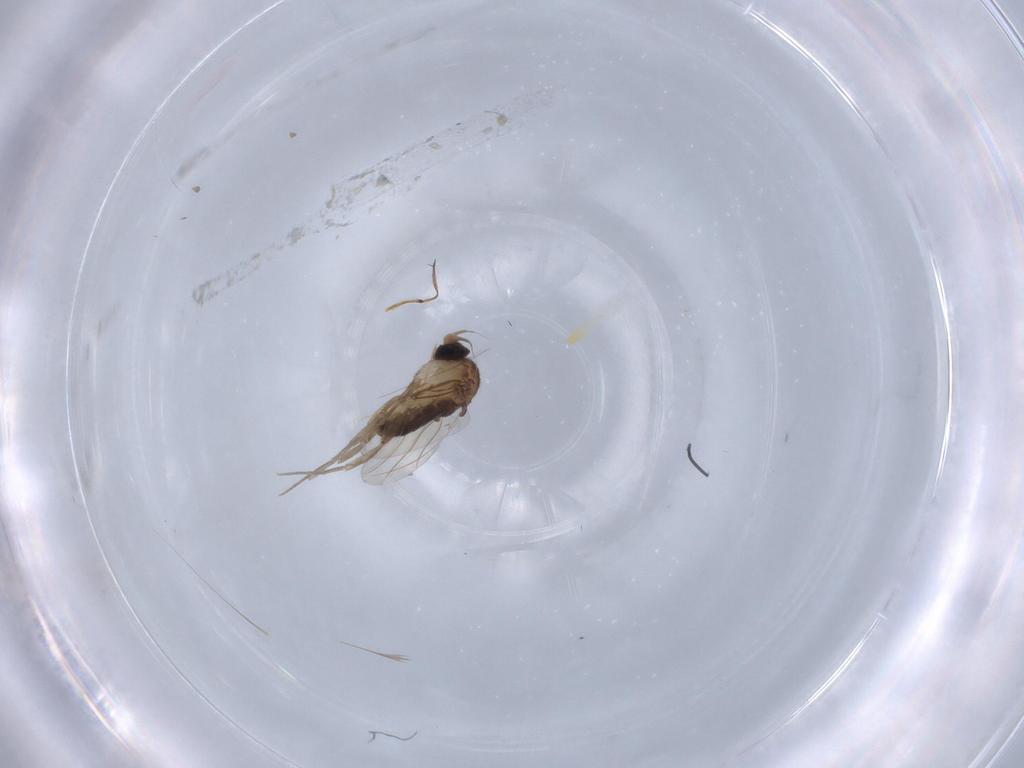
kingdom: Animalia
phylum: Arthropoda
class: Insecta
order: Diptera
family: Phoridae
